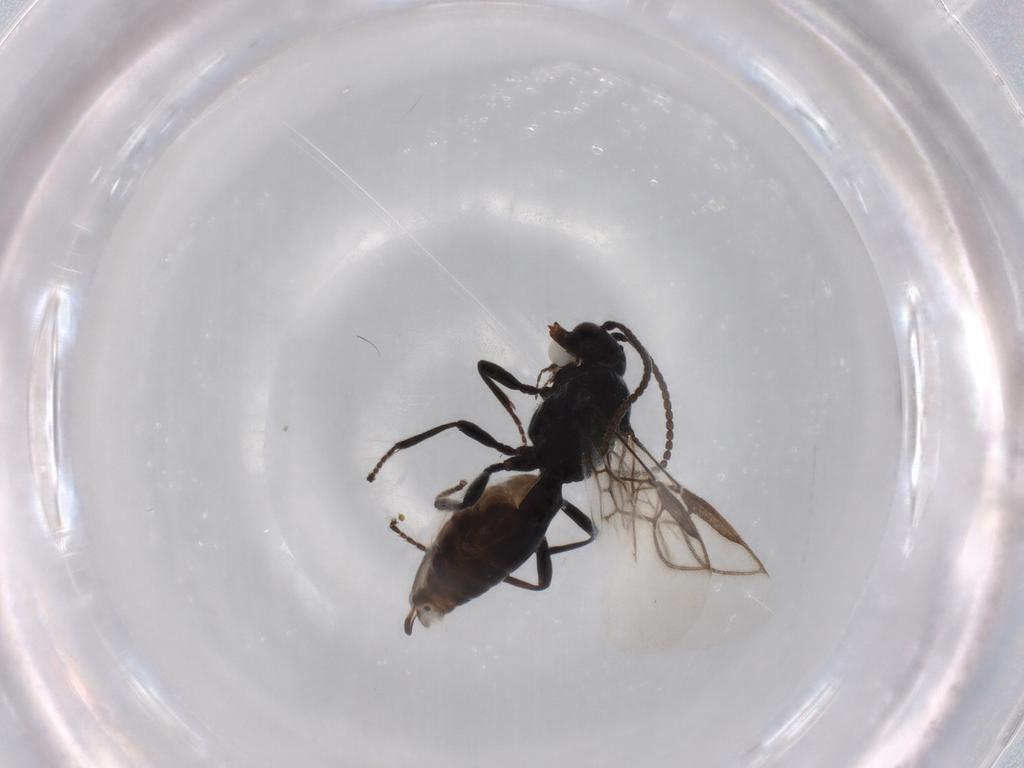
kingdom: Animalia
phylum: Arthropoda
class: Insecta
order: Hymenoptera
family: Braconidae
